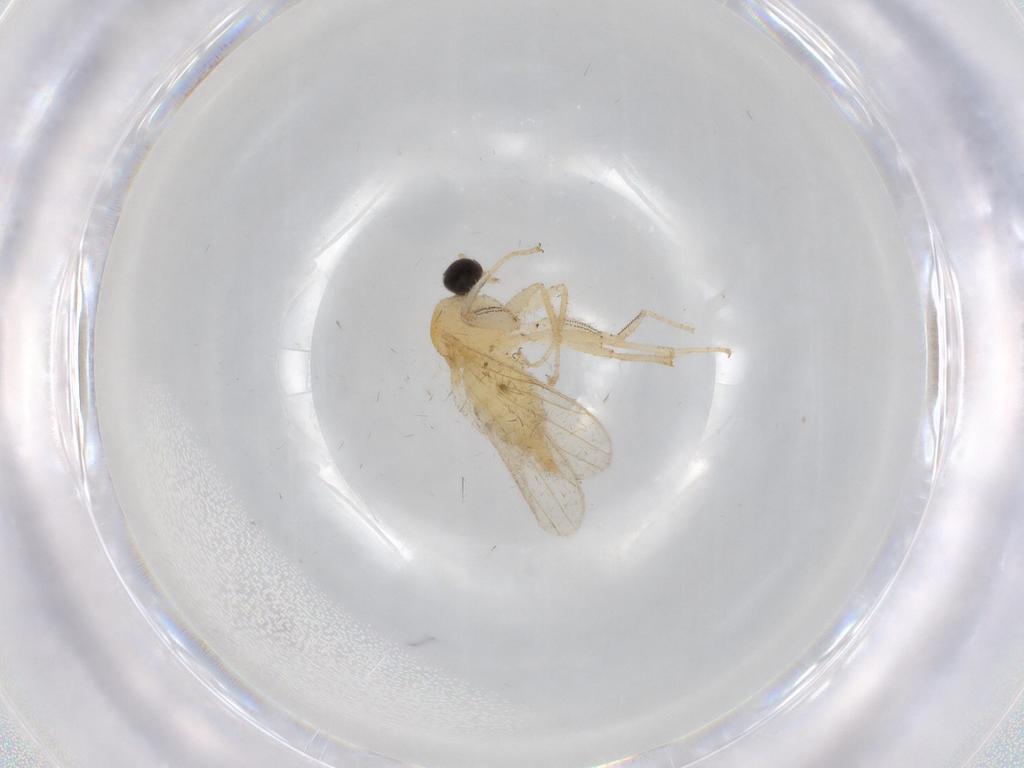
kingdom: Animalia
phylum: Arthropoda
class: Insecta
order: Diptera
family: Hybotidae
